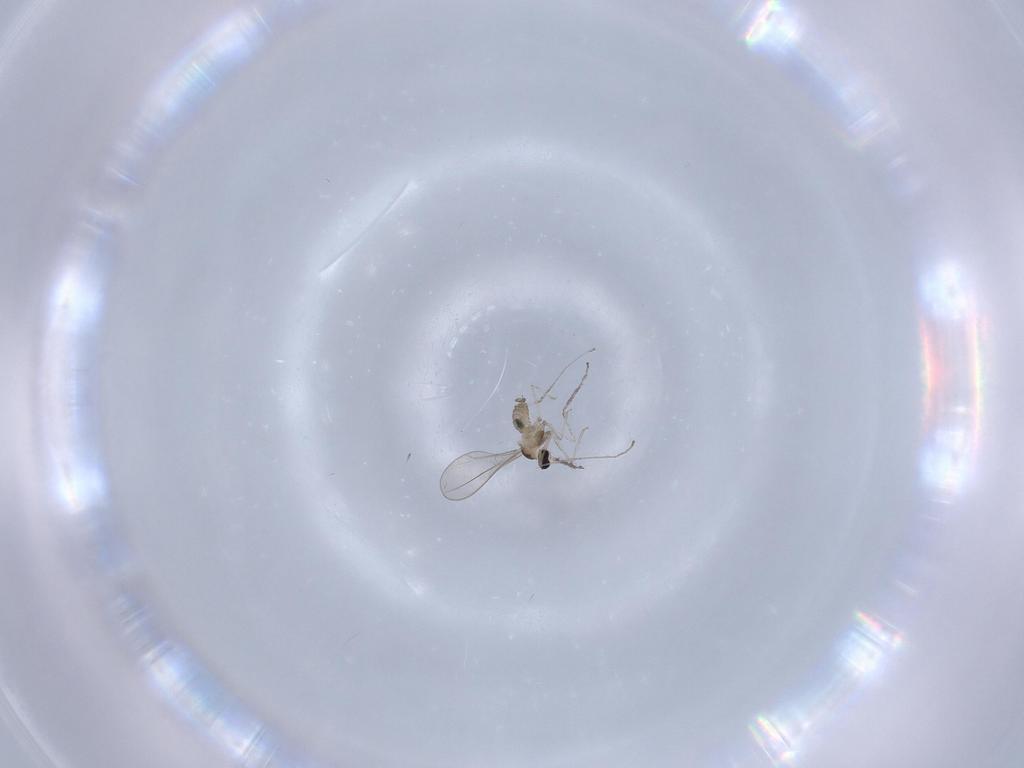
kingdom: Animalia
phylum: Arthropoda
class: Insecta
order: Diptera
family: Cecidomyiidae
